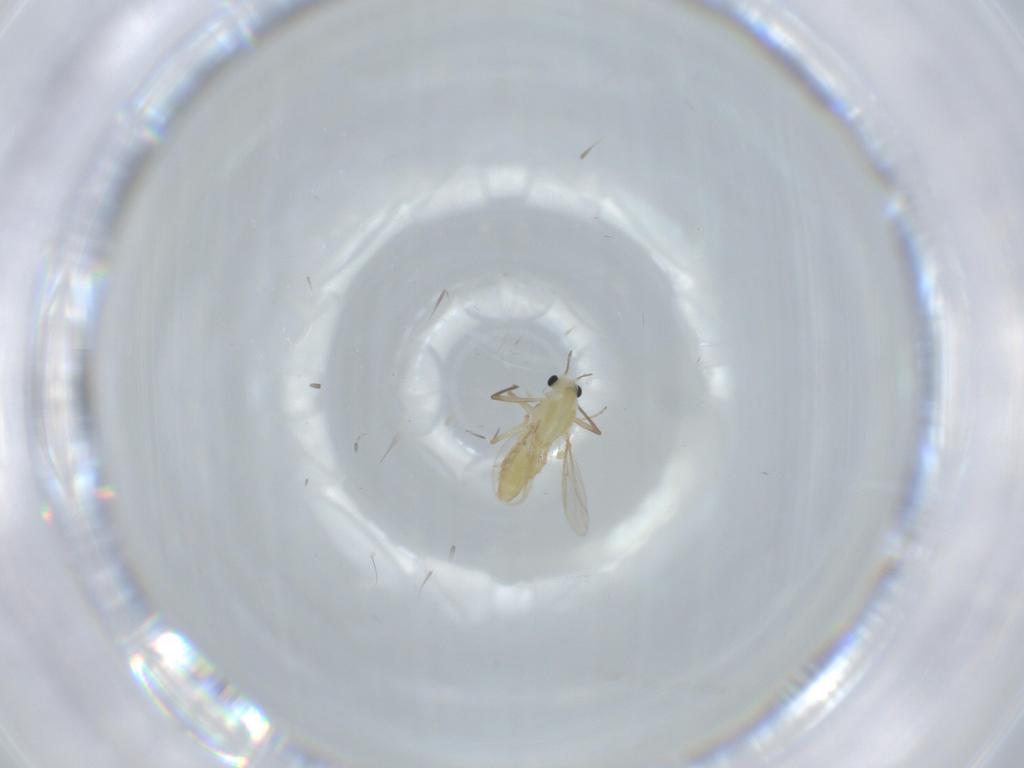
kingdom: Animalia
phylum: Arthropoda
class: Insecta
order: Diptera
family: Chironomidae
